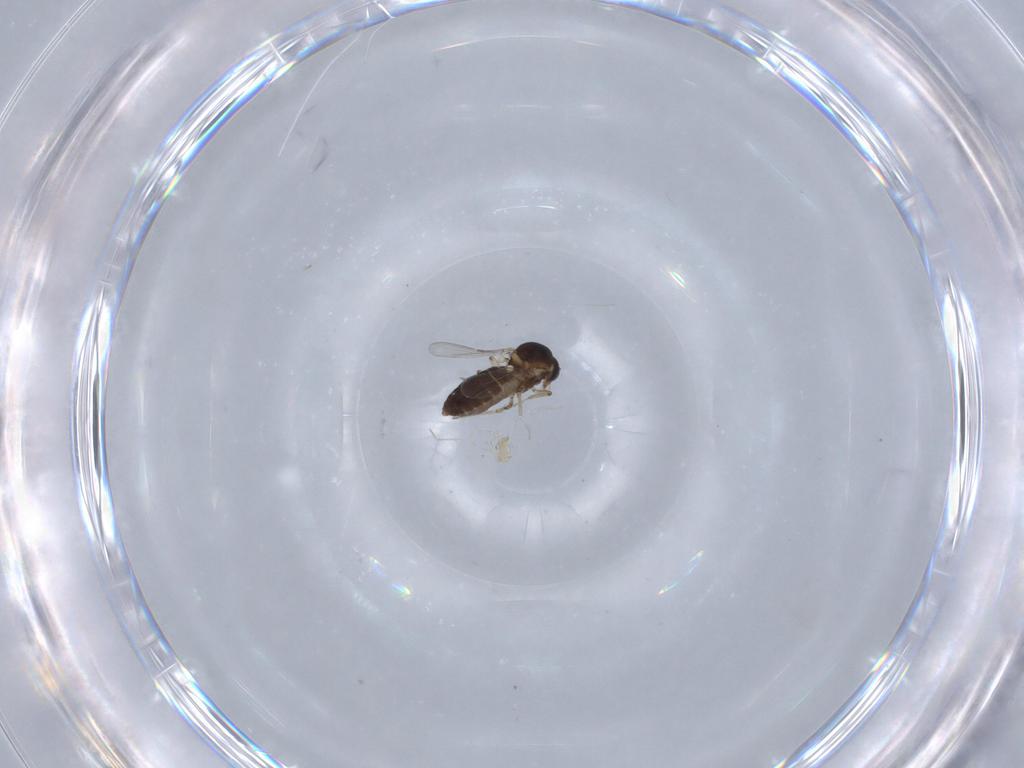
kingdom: Animalia
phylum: Arthropoda
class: Insecta
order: Diptera
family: Ceratopogonidae
